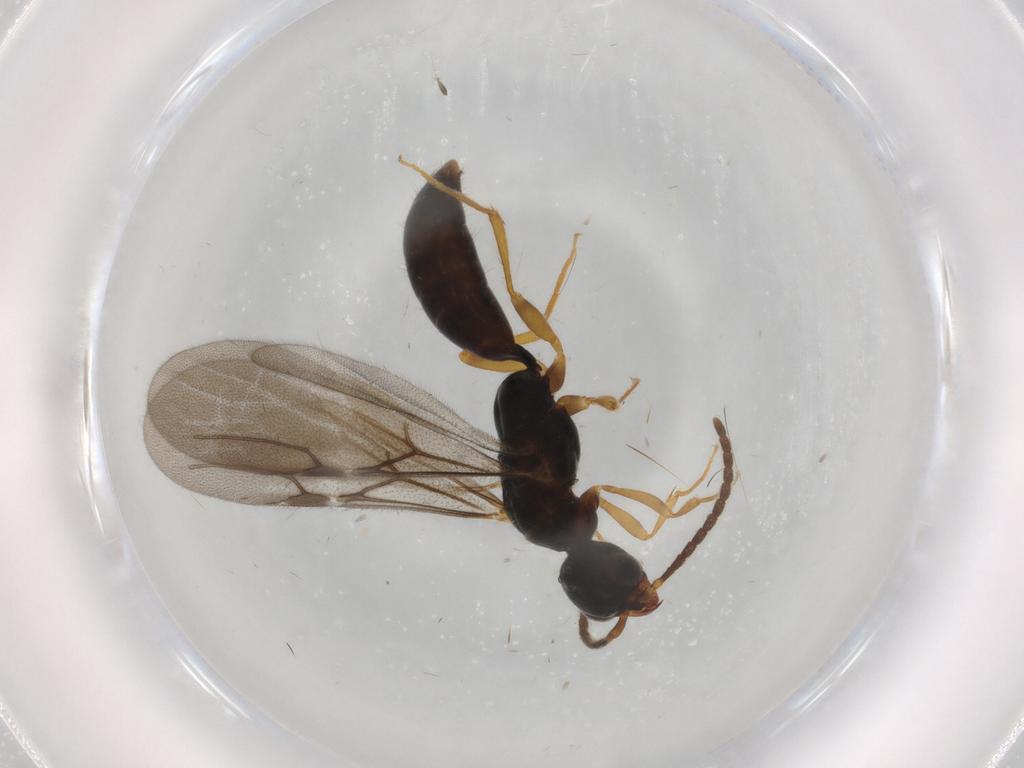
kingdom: Animalia
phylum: Arthropoda
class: Insecta
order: Hymenoptera
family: Bethylidae
